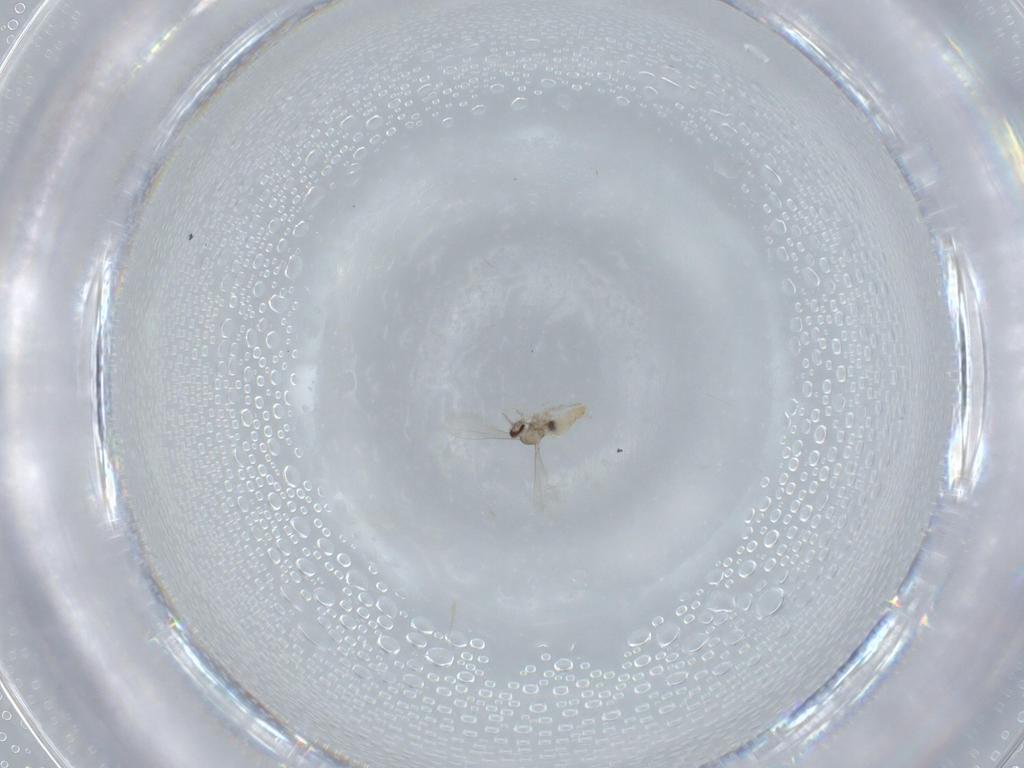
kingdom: Animalia
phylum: Arthropoda
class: Insecta
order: Diptera
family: Cecidomyiidae
